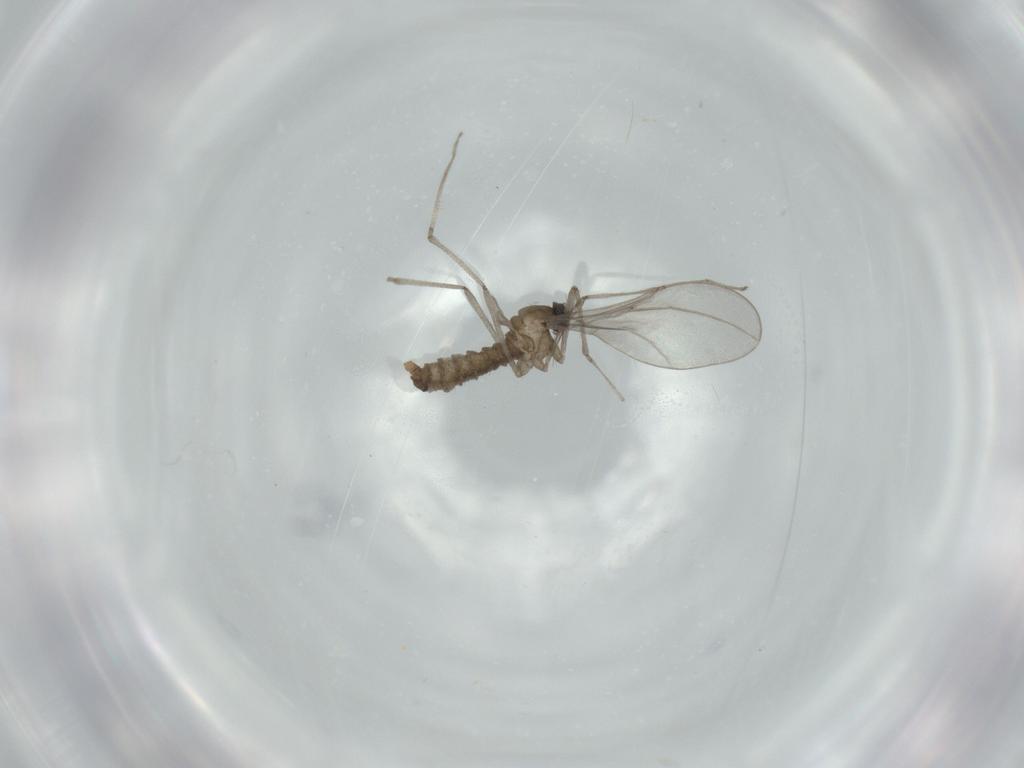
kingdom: Animalia
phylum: Arthropoda
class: Insecta
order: Diptera
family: Cecidomyiidae
